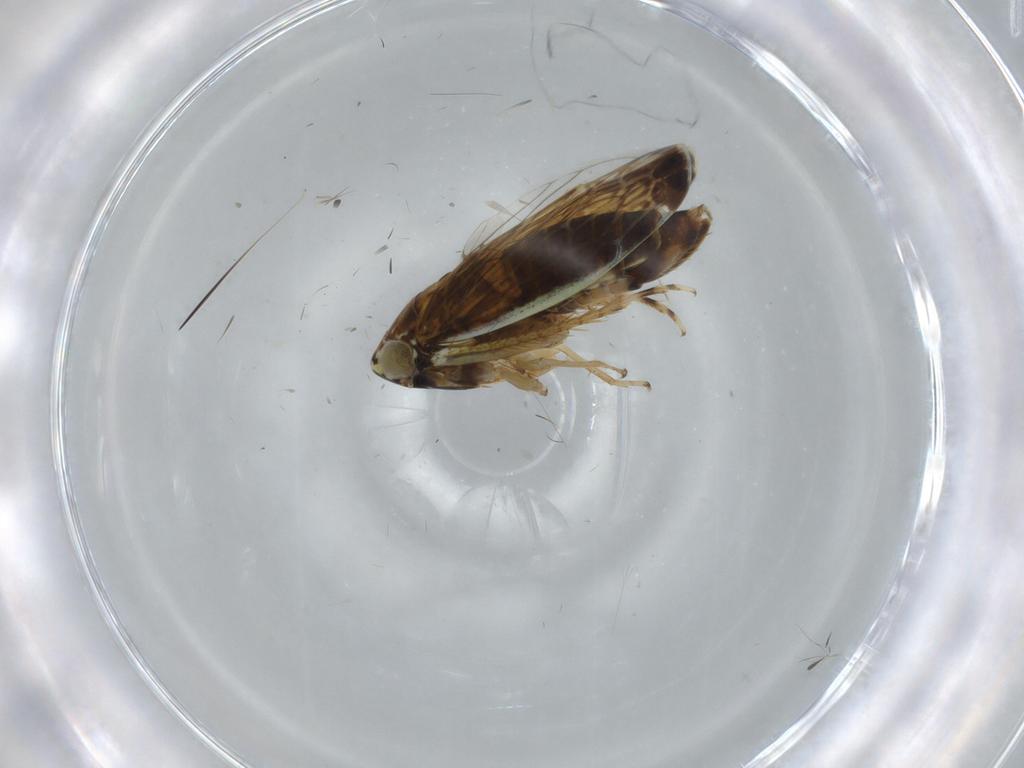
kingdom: Animalia
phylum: Arthropoda
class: Insecta
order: Hemiptera
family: Cicadellidae
